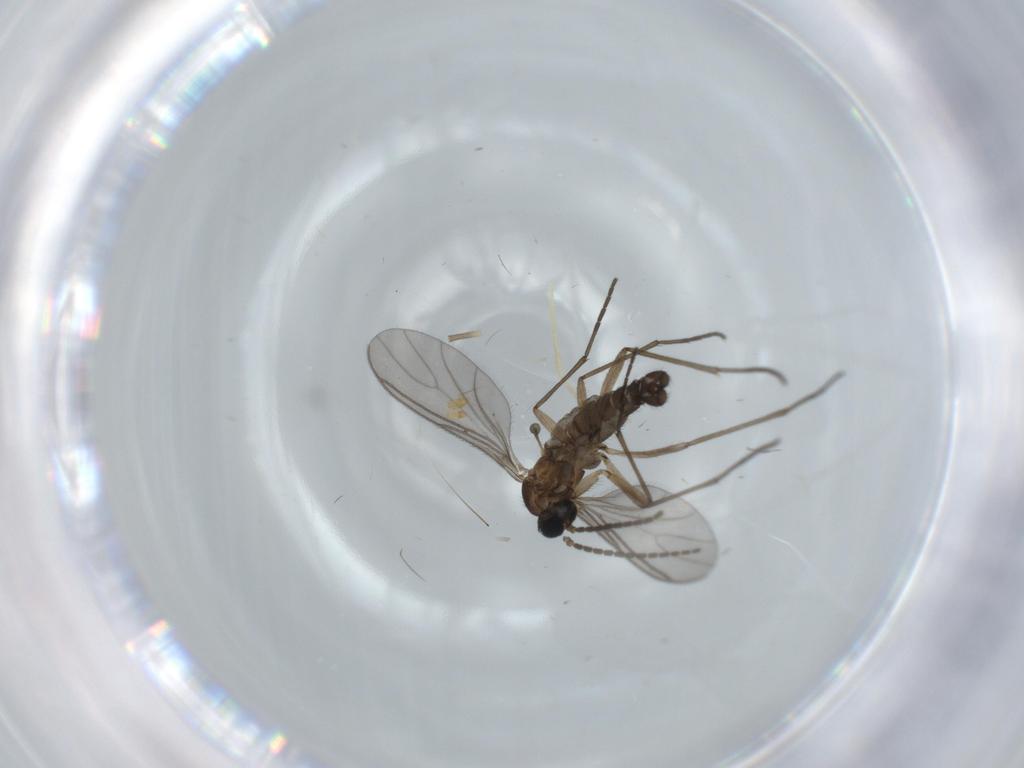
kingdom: Animalia
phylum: Arthropoda
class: Insecta
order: Diptera
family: Sciaridae
